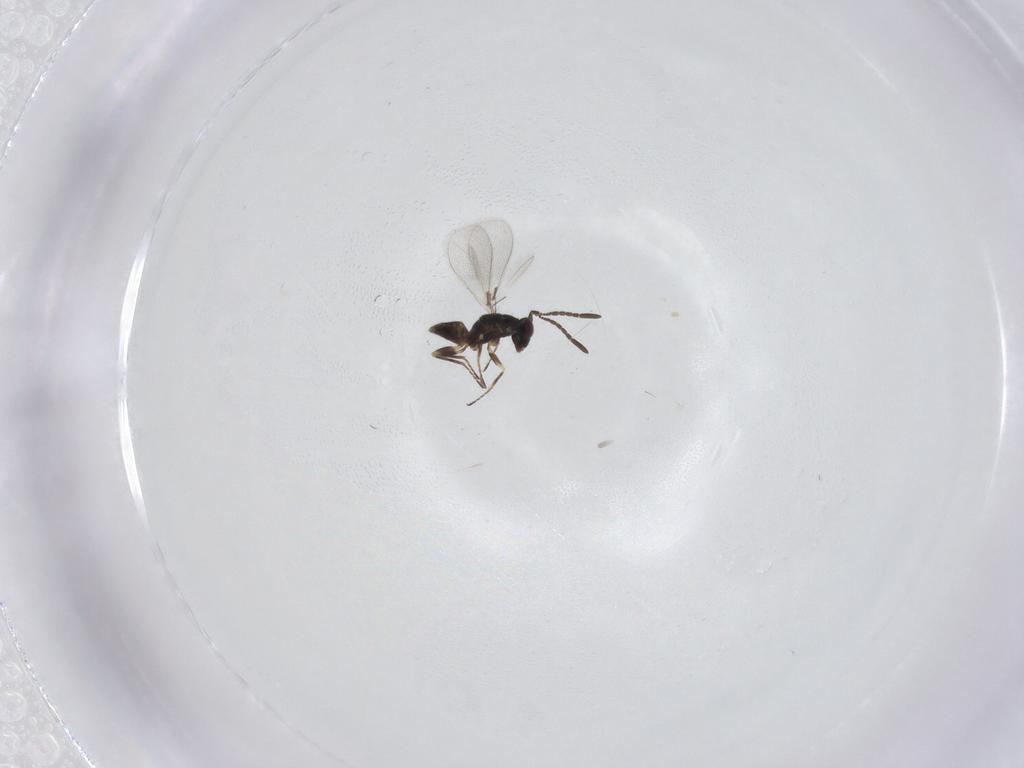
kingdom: Animalia
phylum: Arthropoda
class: Insecta
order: Hymenoptera
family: Mymaridae
